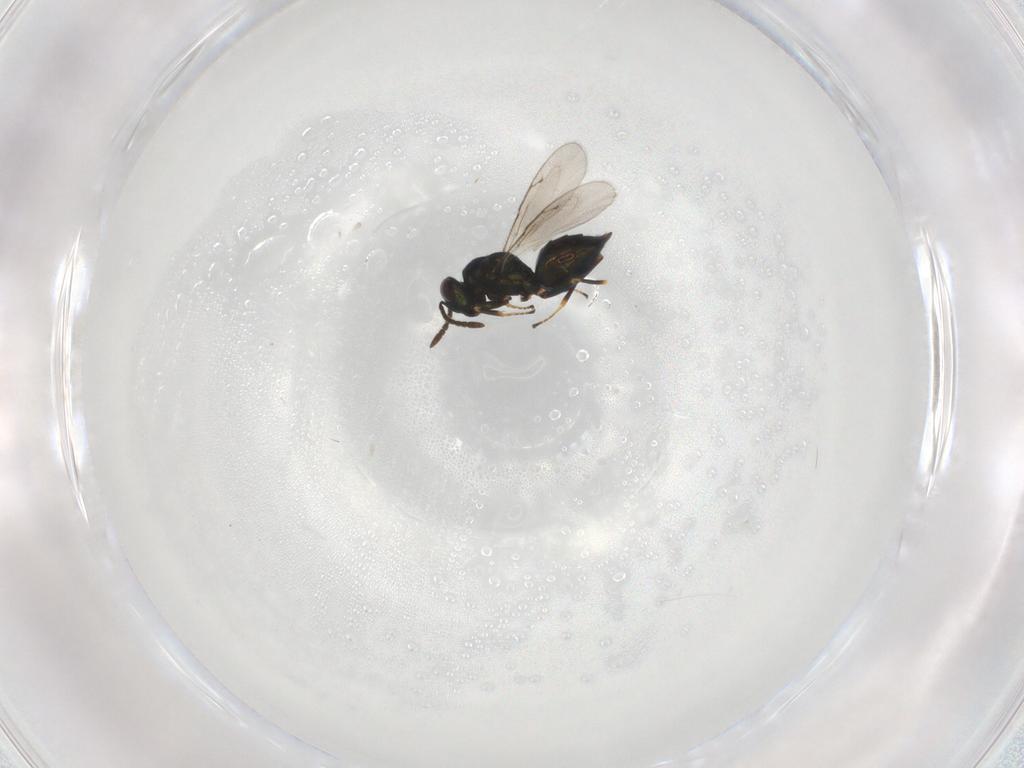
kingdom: Animalia
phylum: Arthropoda
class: Insecta
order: Hymenoptera
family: Pteromalidae
